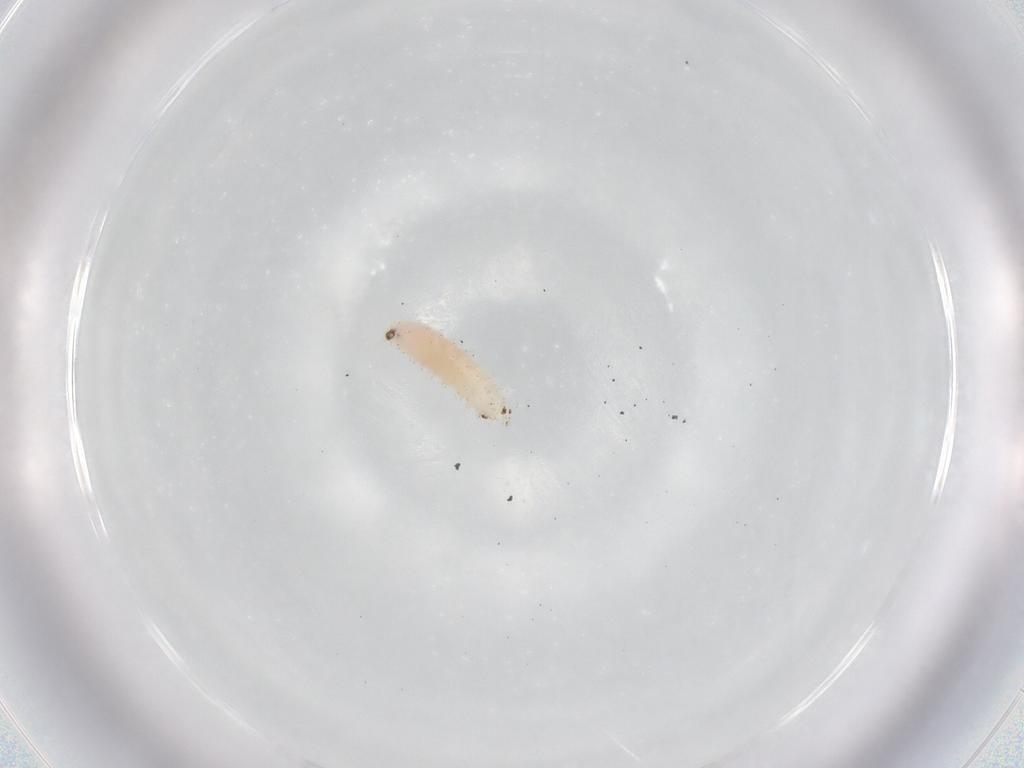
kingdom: Animalia
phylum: Arthropoda
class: Insecta
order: Diptera
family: Cecidomyiidae
